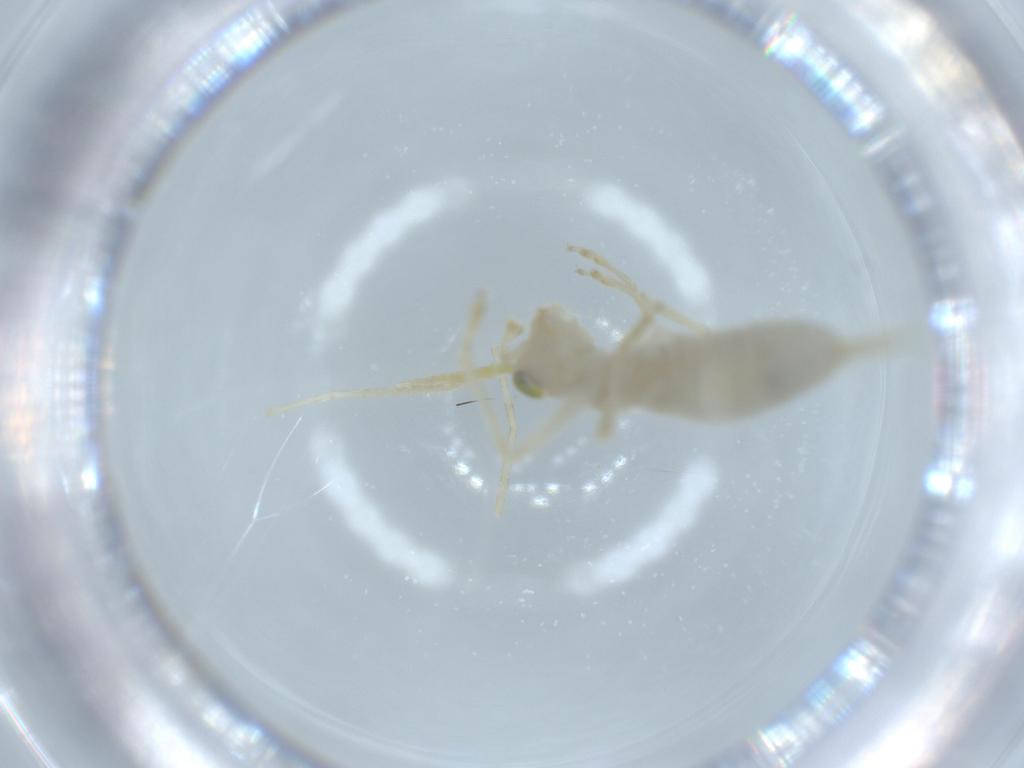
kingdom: Animalia
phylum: Arthropoda
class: Insecta
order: Orthoptera
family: Trigonidiidae
